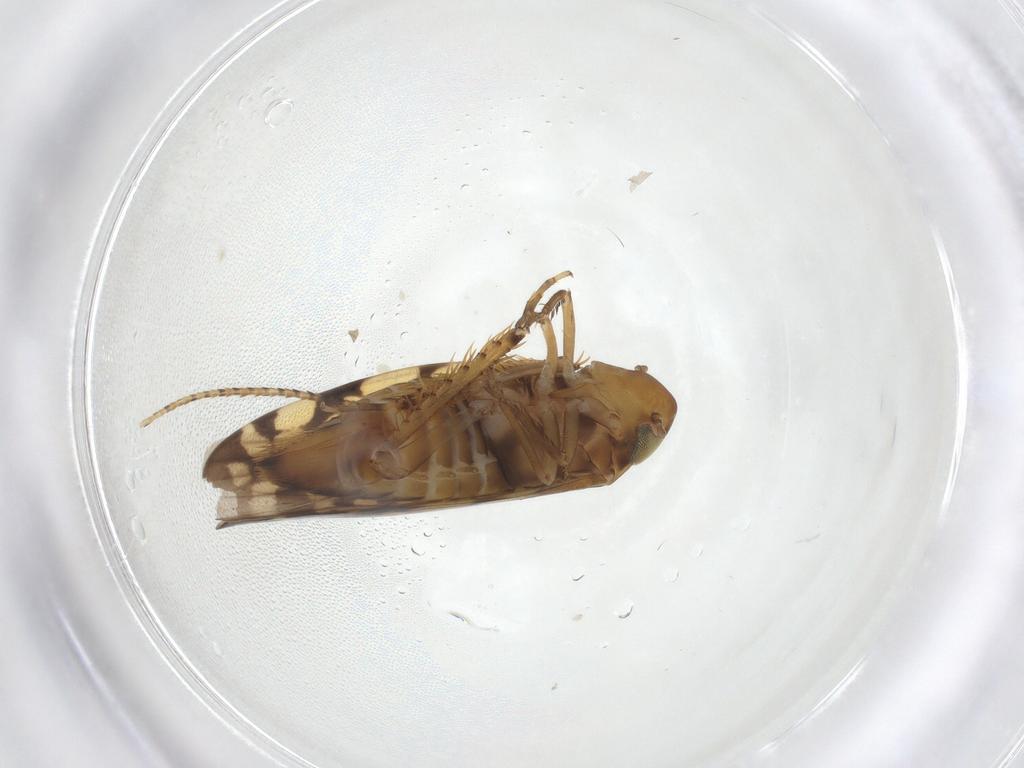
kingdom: Animalia
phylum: Arthropoda
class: Insecta
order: Hemiptera
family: Cicadellidae
